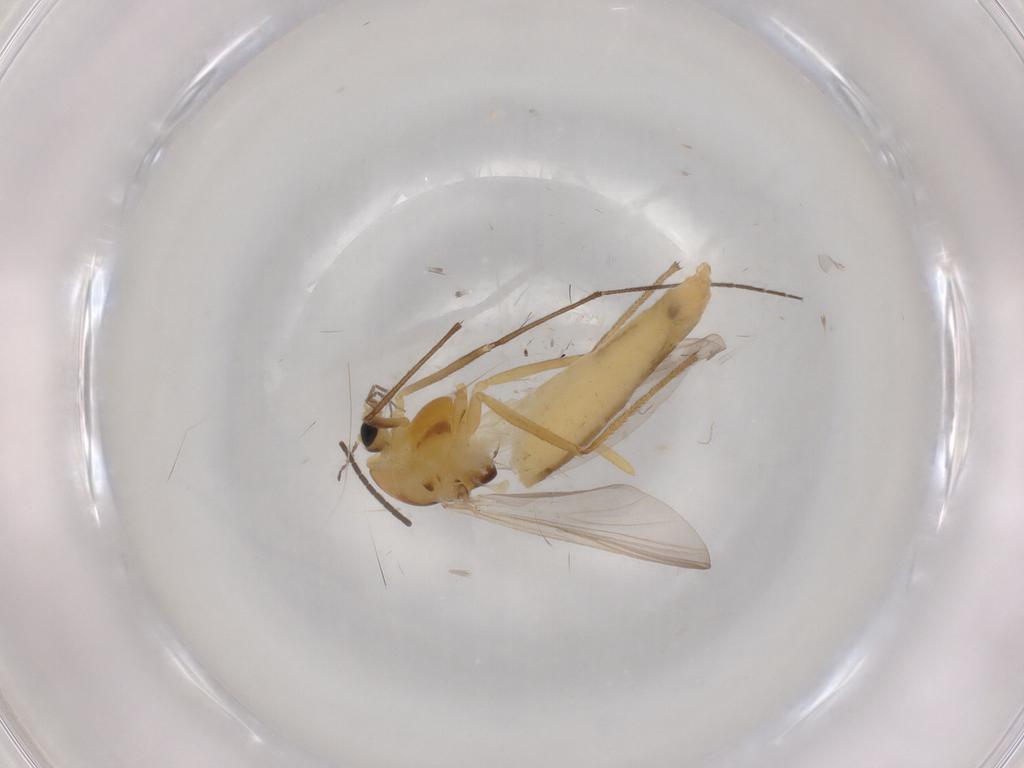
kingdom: Animalia
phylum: Arthropoda
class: Insecta
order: Diptera
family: Chironomidae
